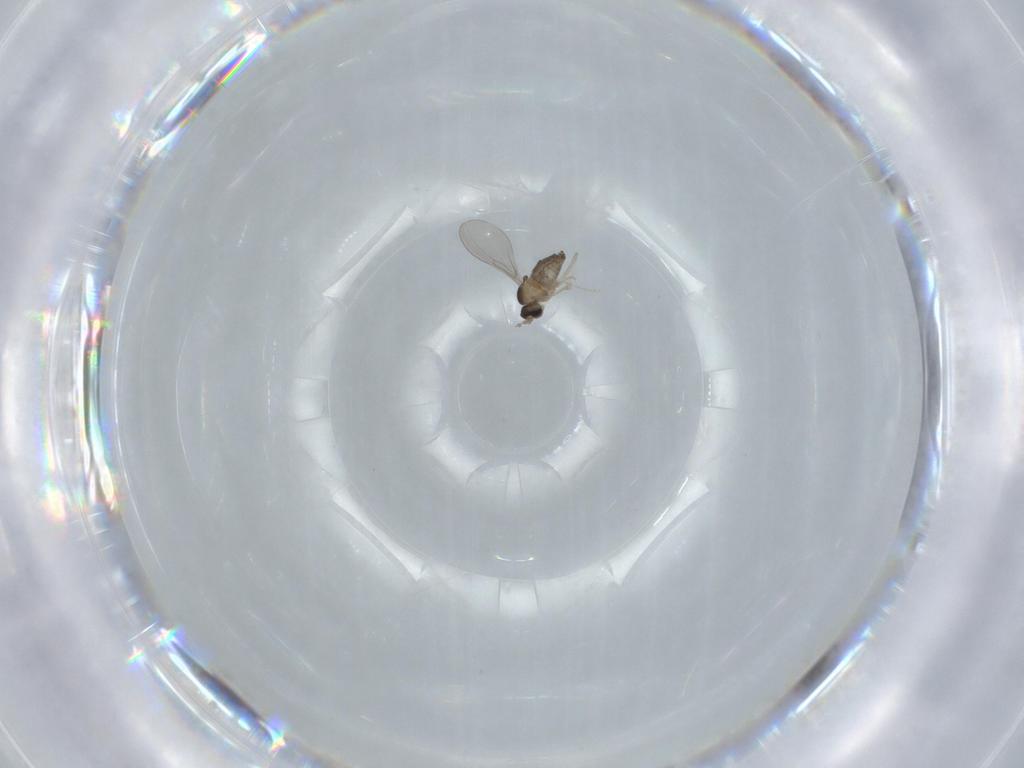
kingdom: Animalia
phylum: Arthropoda
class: Insecta
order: Diptera
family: Cecidomyiidae
